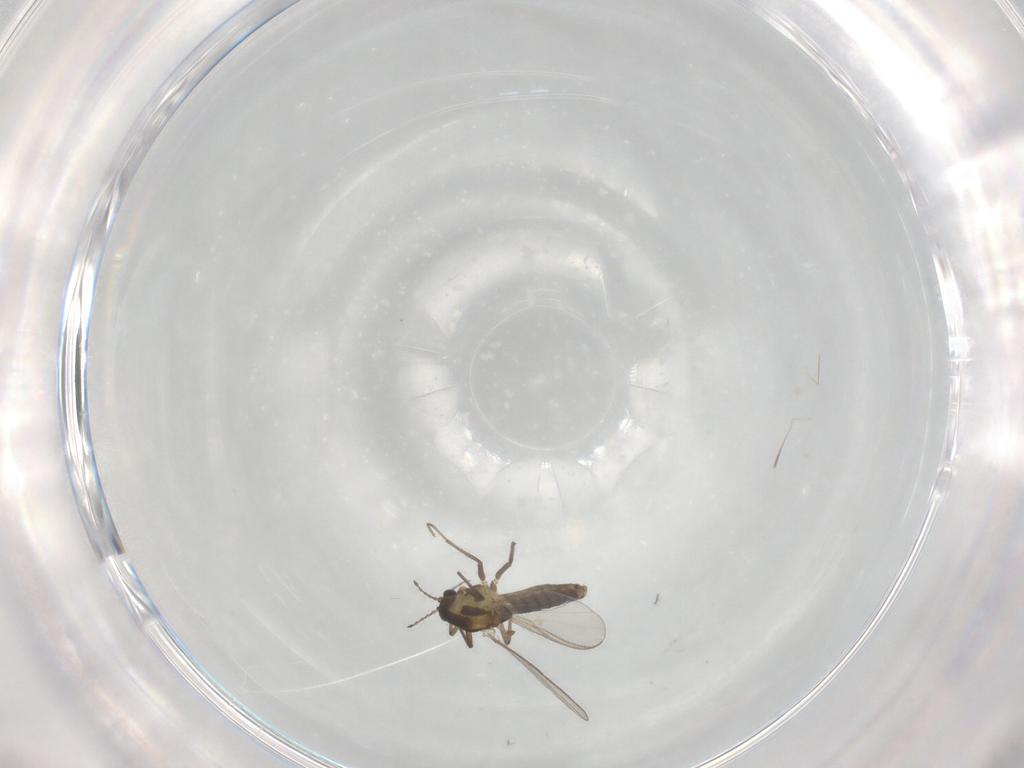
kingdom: Animalia
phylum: Arthropoda
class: Insecta
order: Diptera
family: Chironomidae
